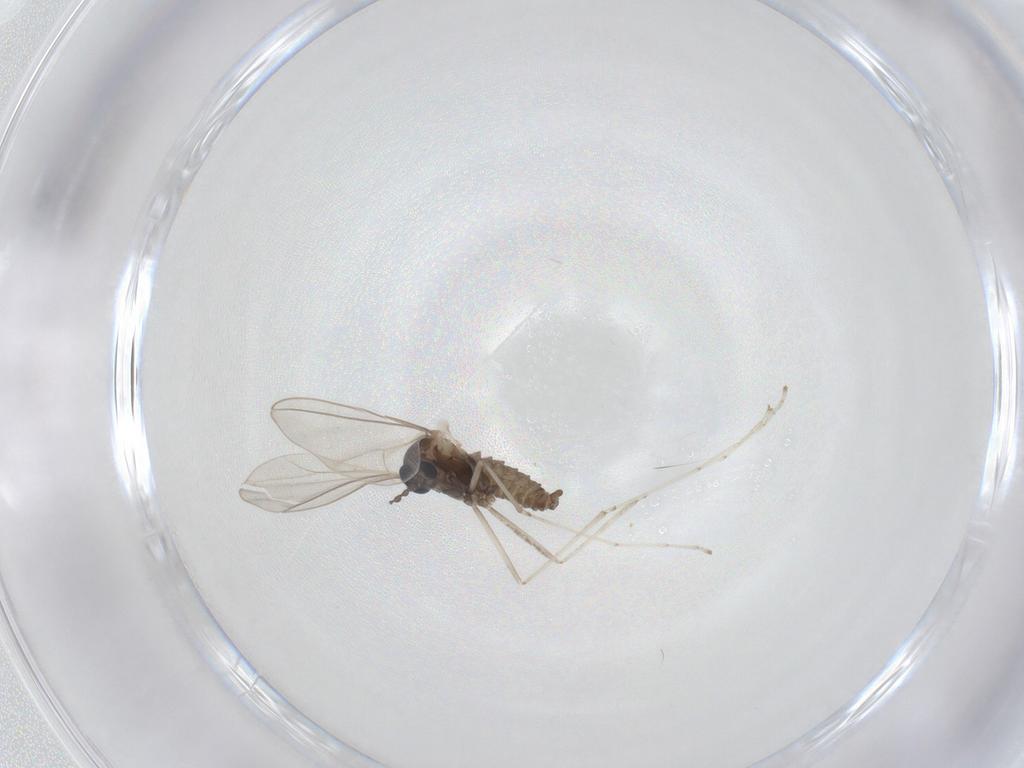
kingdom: Animalia
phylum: Arthropoda
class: Insecta
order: Diptera
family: Cecidomyiidae
